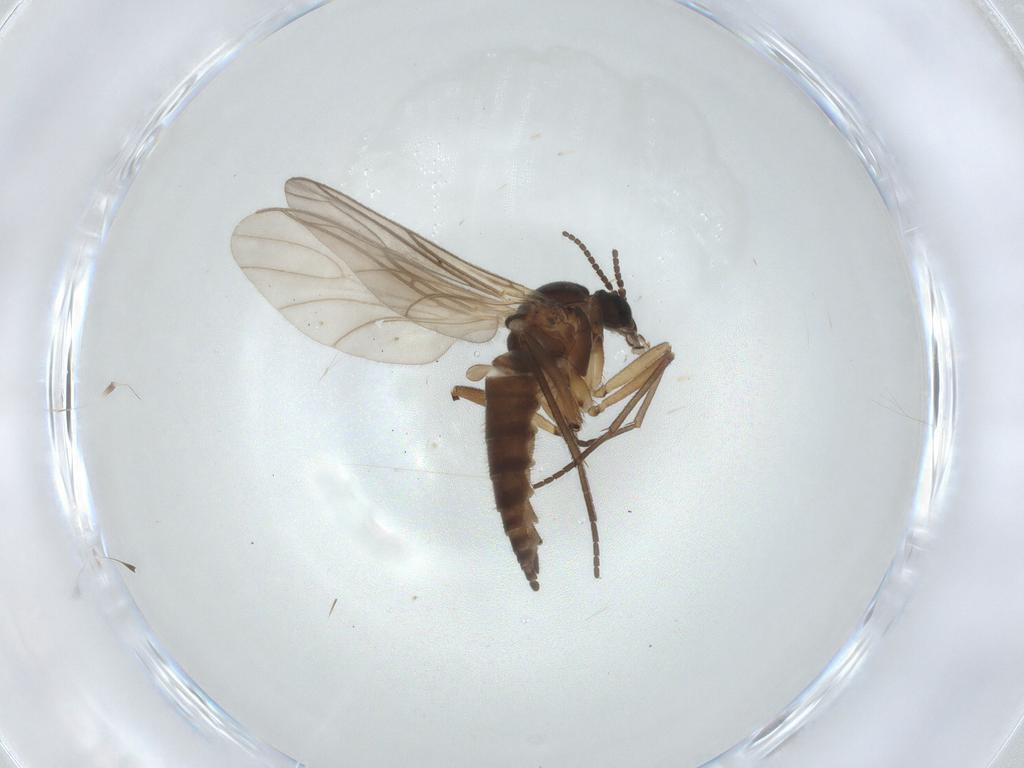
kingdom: Animalia
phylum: Arthropoda
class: Insecta
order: Diptera
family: Sciaridae
